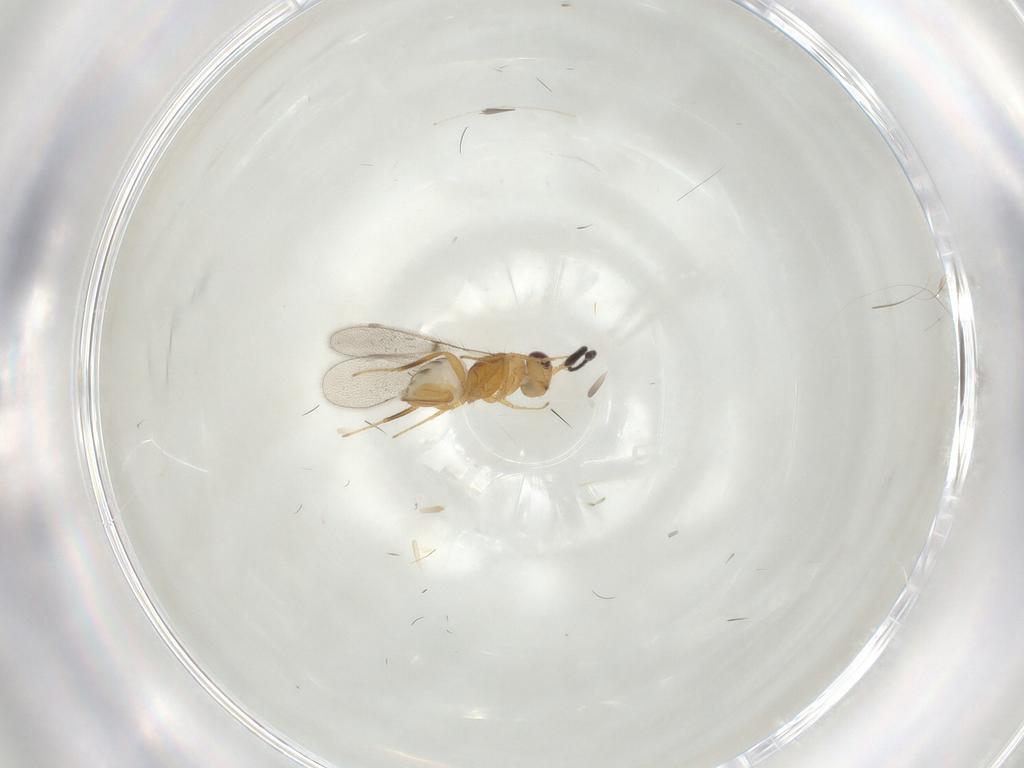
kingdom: Animalia
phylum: Arthropoda
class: Insecta
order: Hymenoptera
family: Mymaridae
